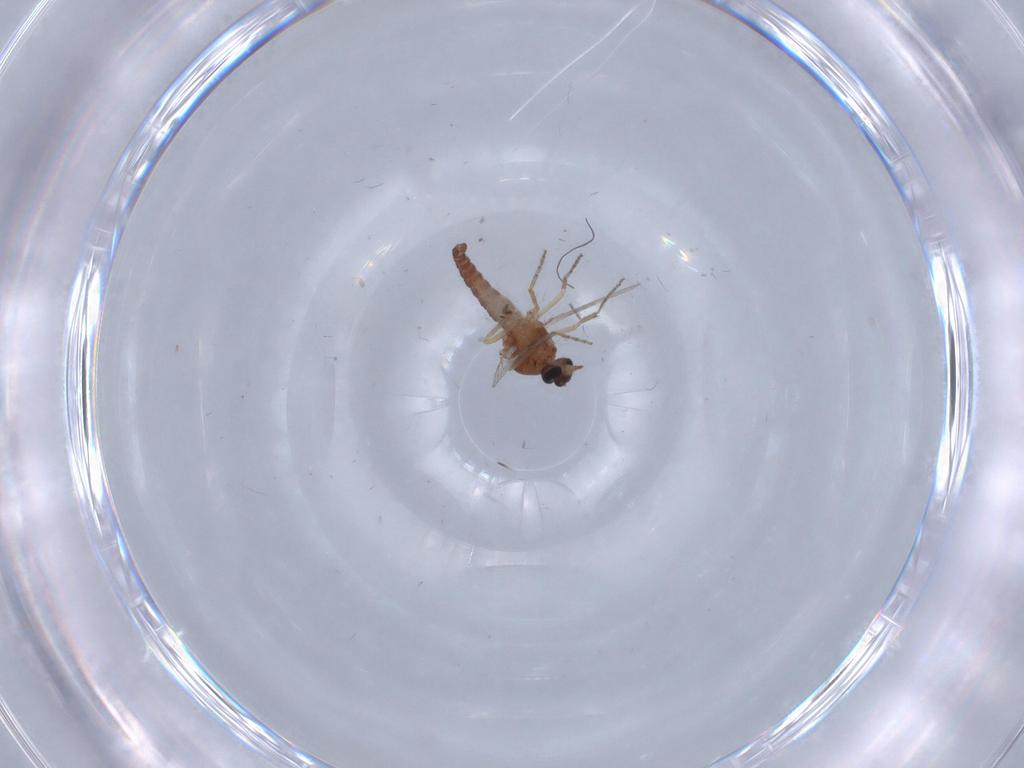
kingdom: Animalia
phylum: Arthropoda
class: Insecta
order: Diptera
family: Ceratopogonidae
